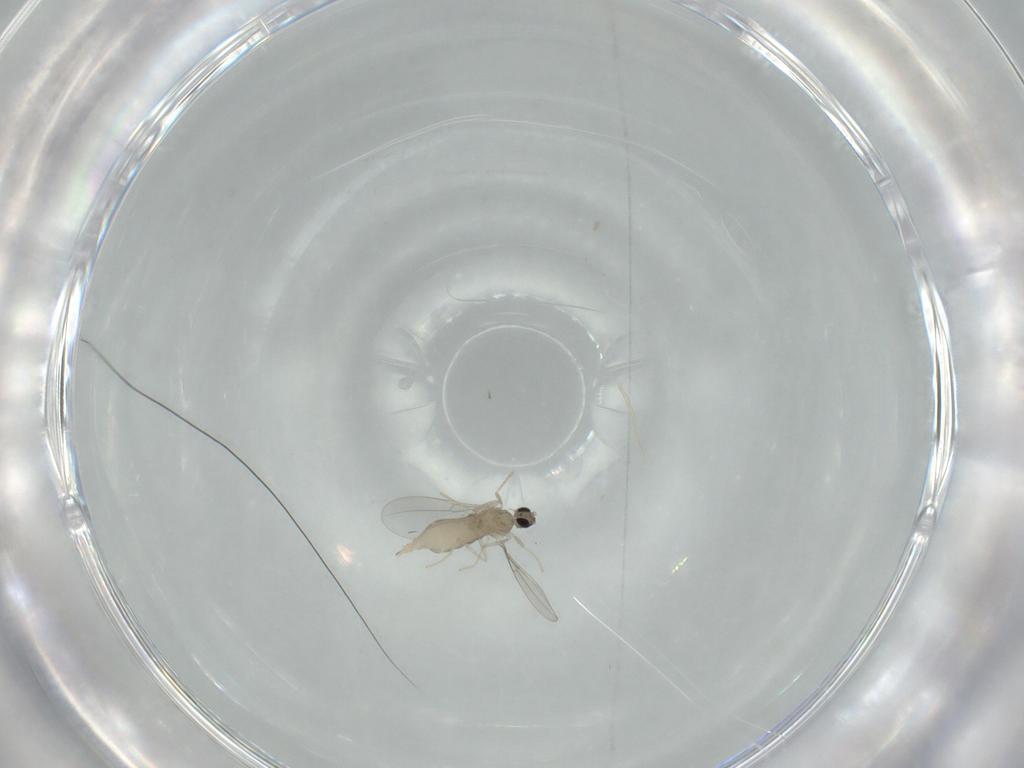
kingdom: Animalia
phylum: Arthropoda
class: Insecta
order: Diptera
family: Cecidomyiidae
